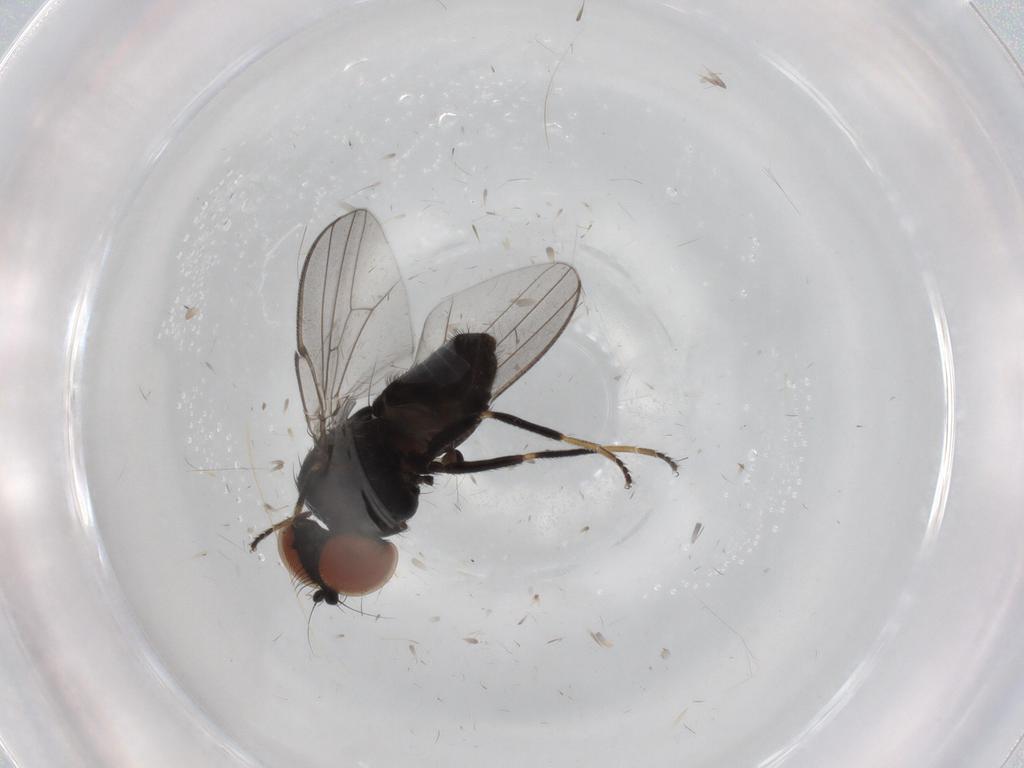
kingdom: Animalia
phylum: Arthropoda
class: Insecta
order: Diptera
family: Milichiidae
